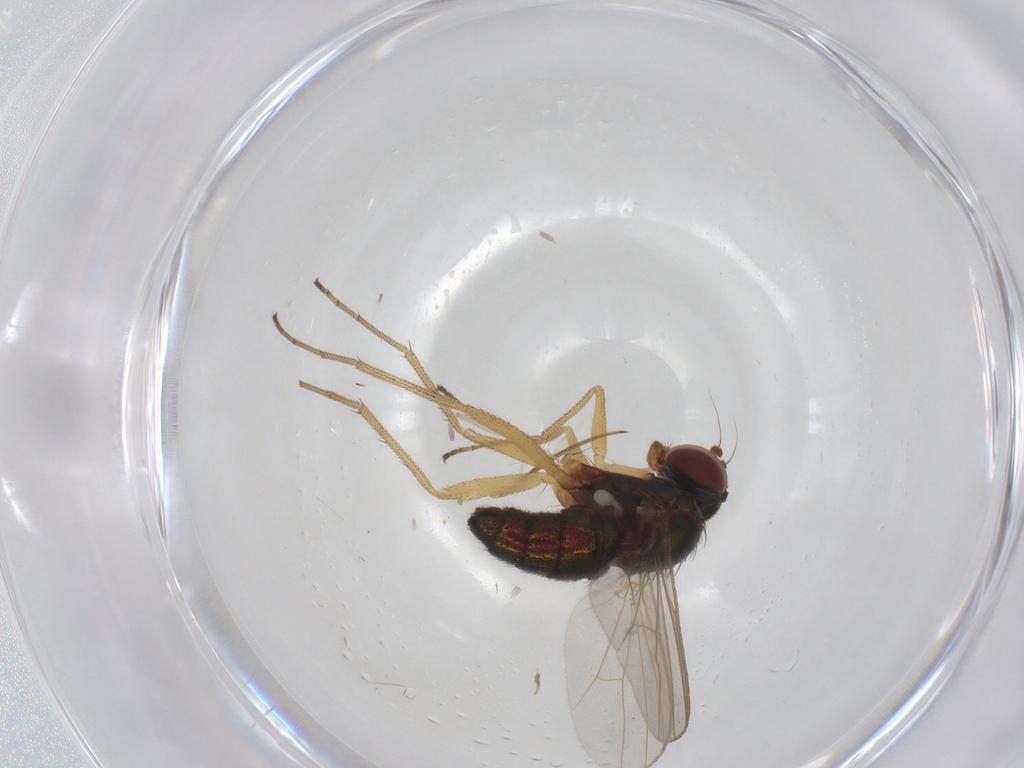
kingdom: Animalia
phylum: Arthropoda
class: Insecta
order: Diptera
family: Dolichopodidae
